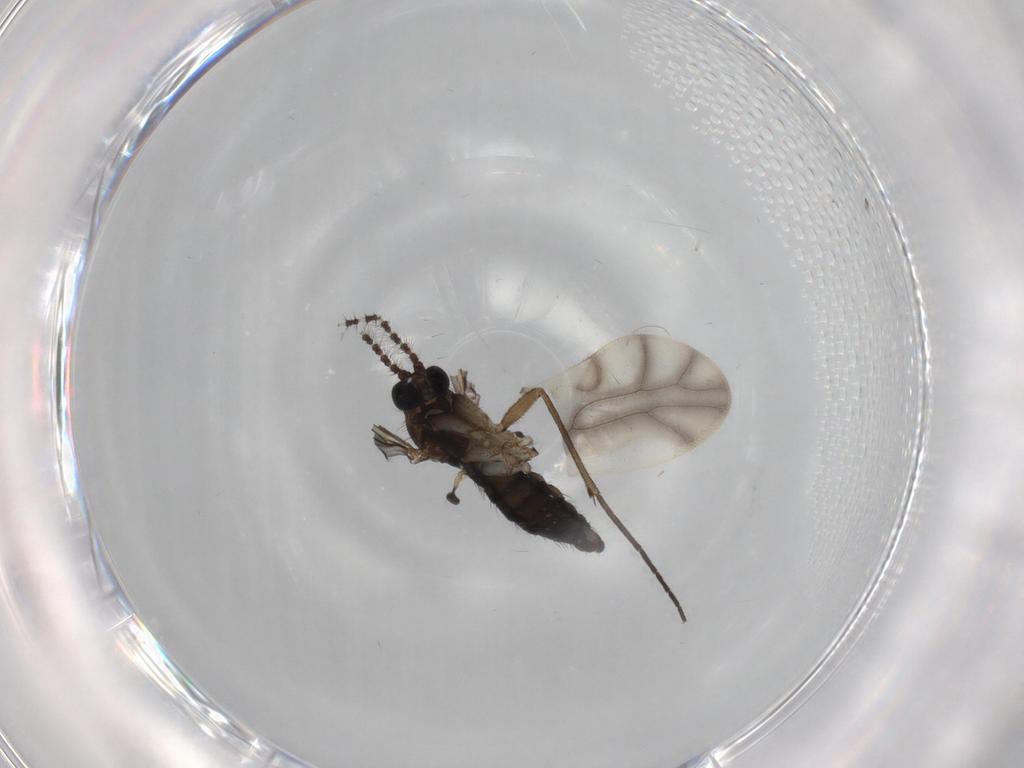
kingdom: Animalia
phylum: Arthropoda
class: Insecta
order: Diptera
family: Sciaridae
